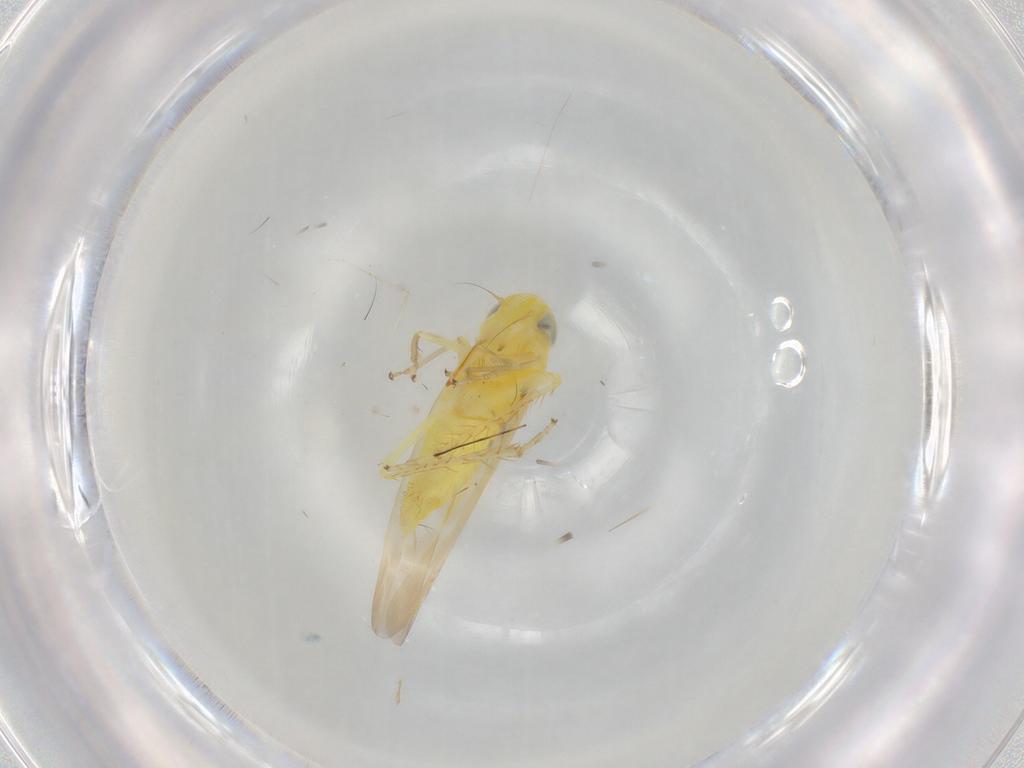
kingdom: Animalia
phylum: Arthropoda
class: Insecta
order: Hemiptera
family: Cicadellidae
